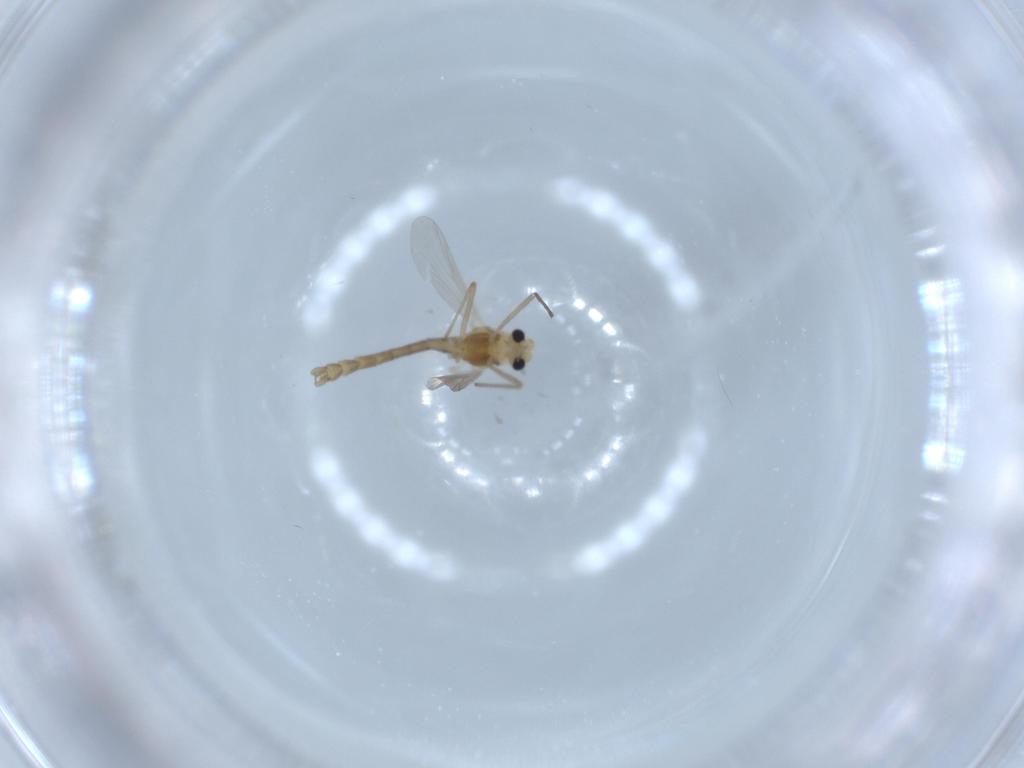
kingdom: Animalia
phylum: Arthropoda
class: Insecta
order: Diptera
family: Chironomidae
